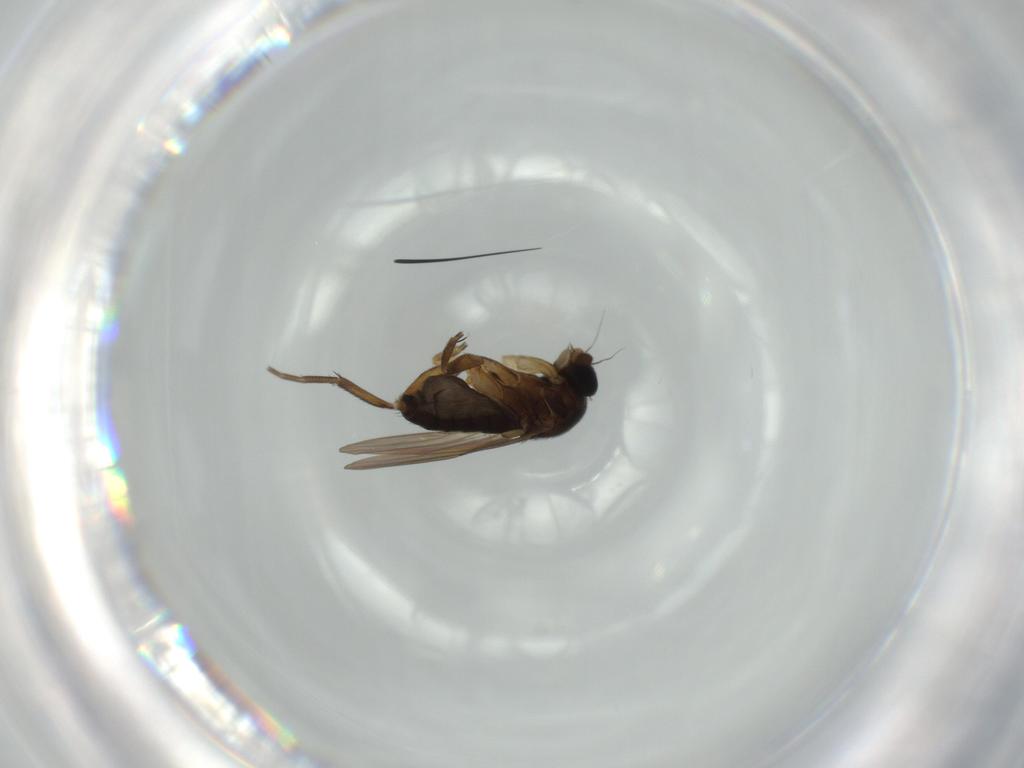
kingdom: Animalia
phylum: Arthropoda
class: Insecta
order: Diptera
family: Phoridae
